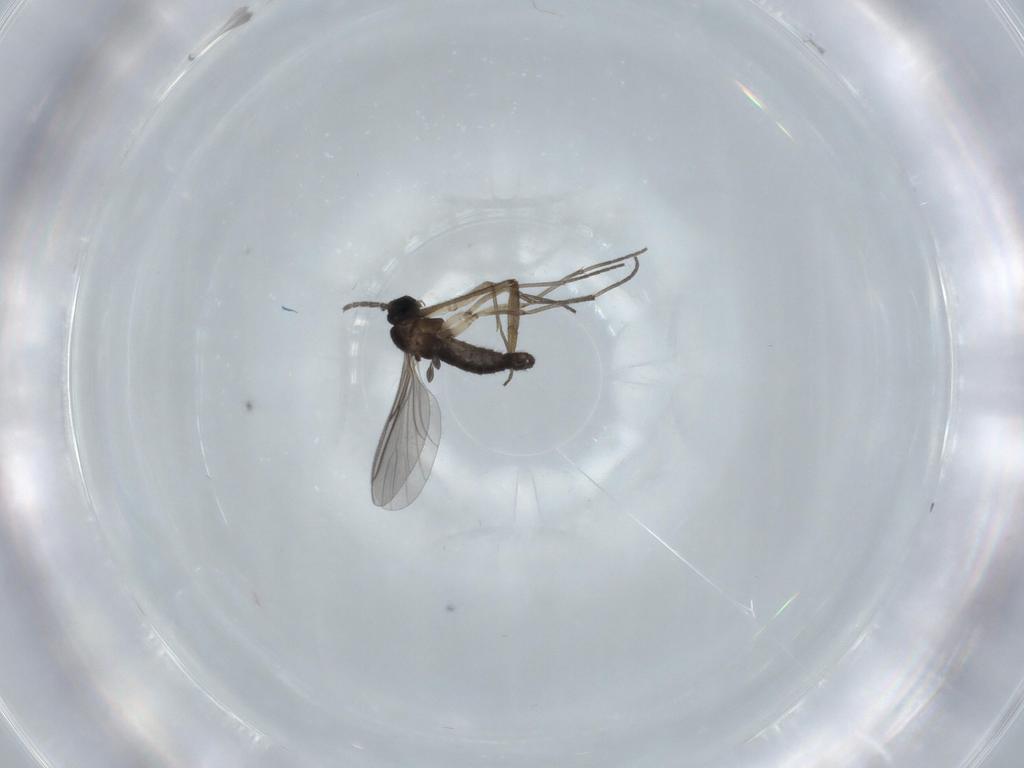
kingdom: Animalia
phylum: Arthropoda
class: Insecta
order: Diptera
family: Sciaridae
